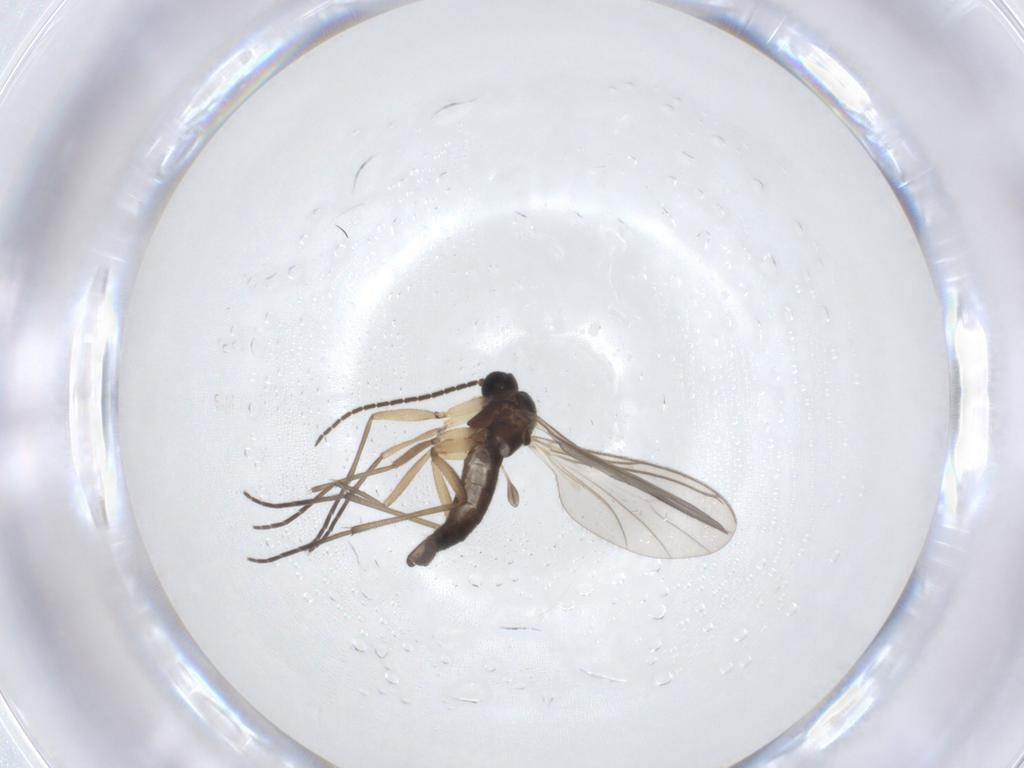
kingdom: Animalia
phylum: Arthropoda
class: Insecta
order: Diptera
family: Sciaridae
